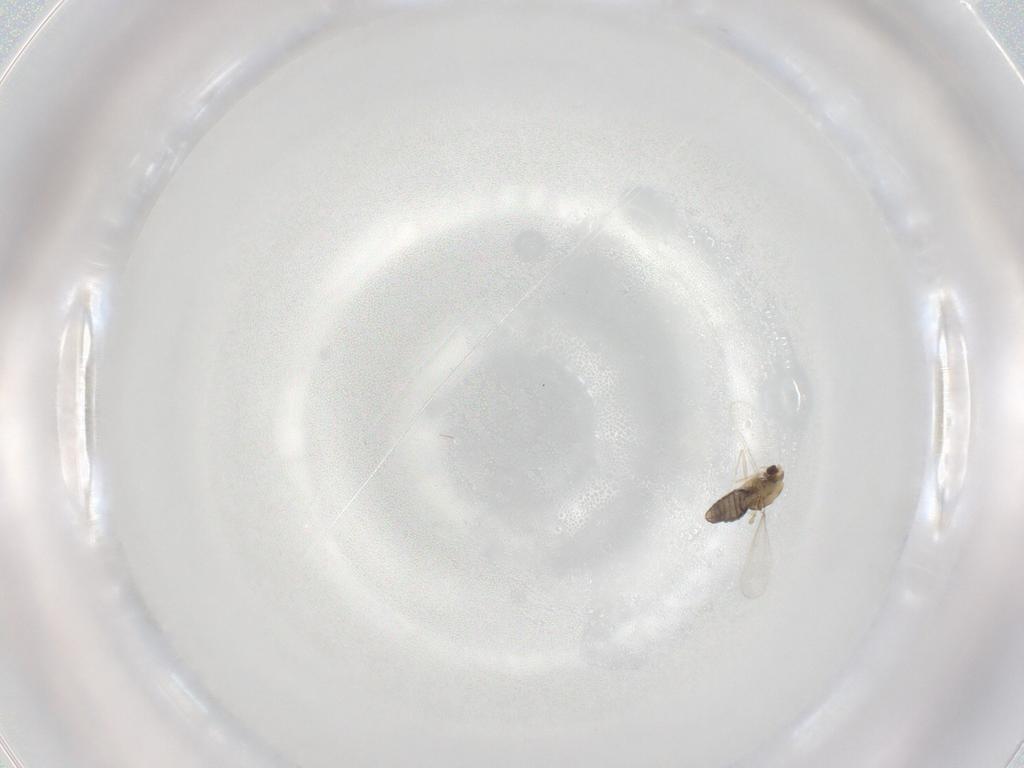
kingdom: Animalia
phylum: Arthropoda
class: Insecta
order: Diptera
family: Chironomidae
